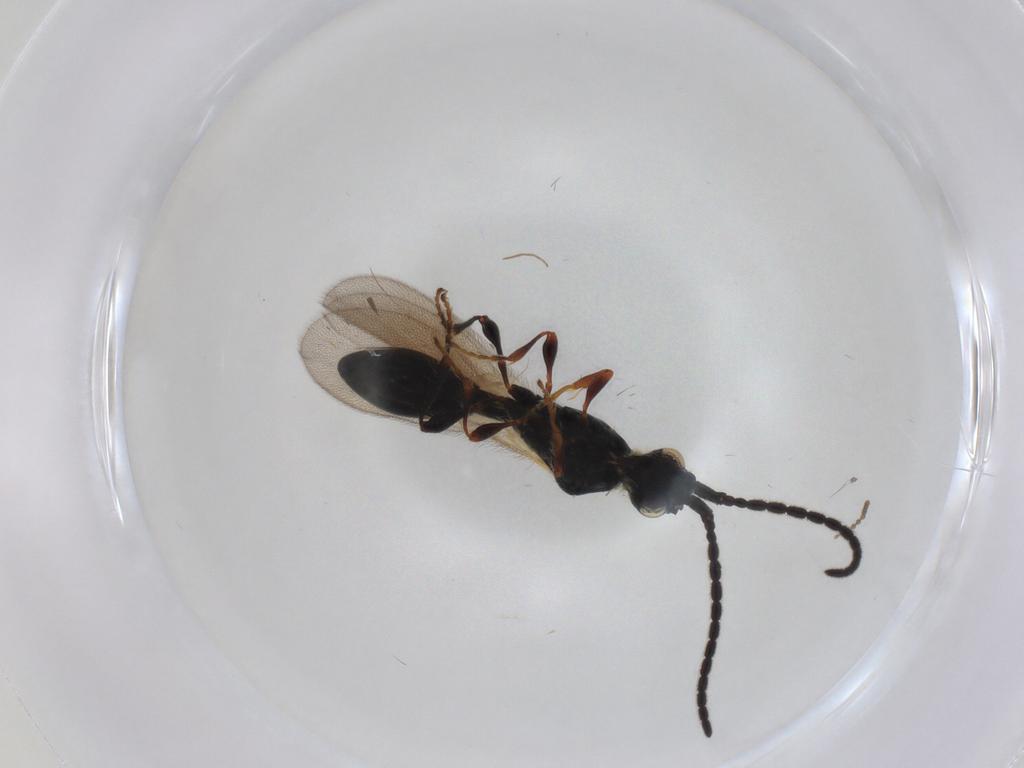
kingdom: Animalia
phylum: Arthropoda
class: Insecta
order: Hymenoptera
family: Diapriidae
